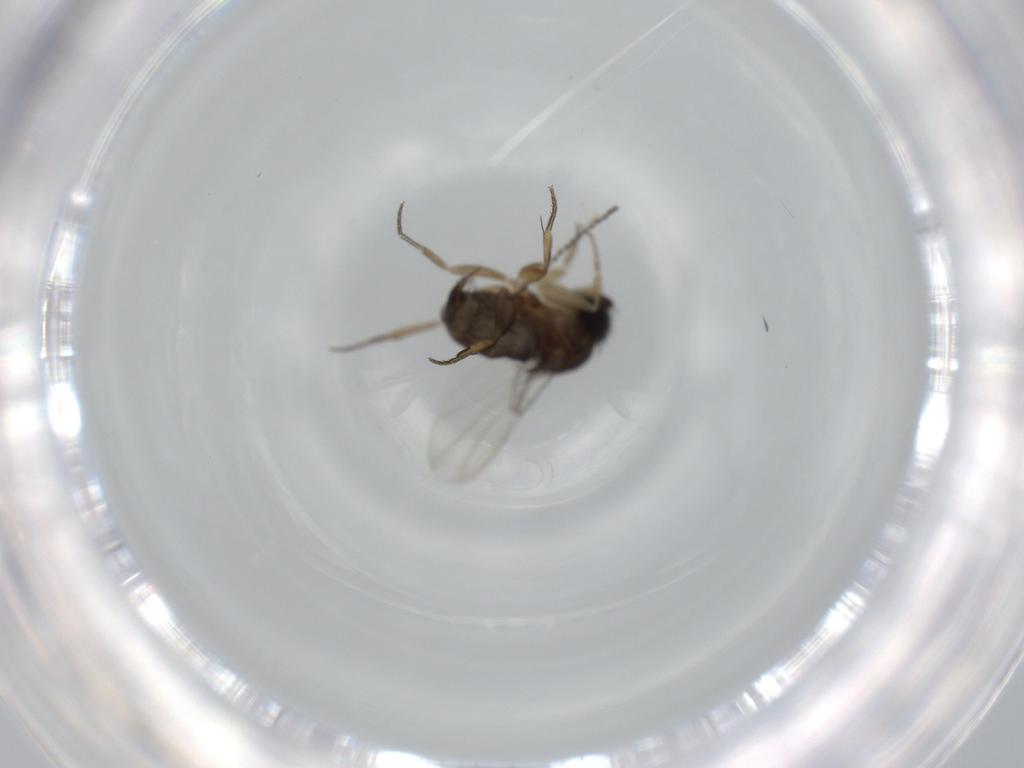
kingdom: Animalia
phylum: Arthropoda
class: Insecta
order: Diptera
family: Cecidomyiidae
